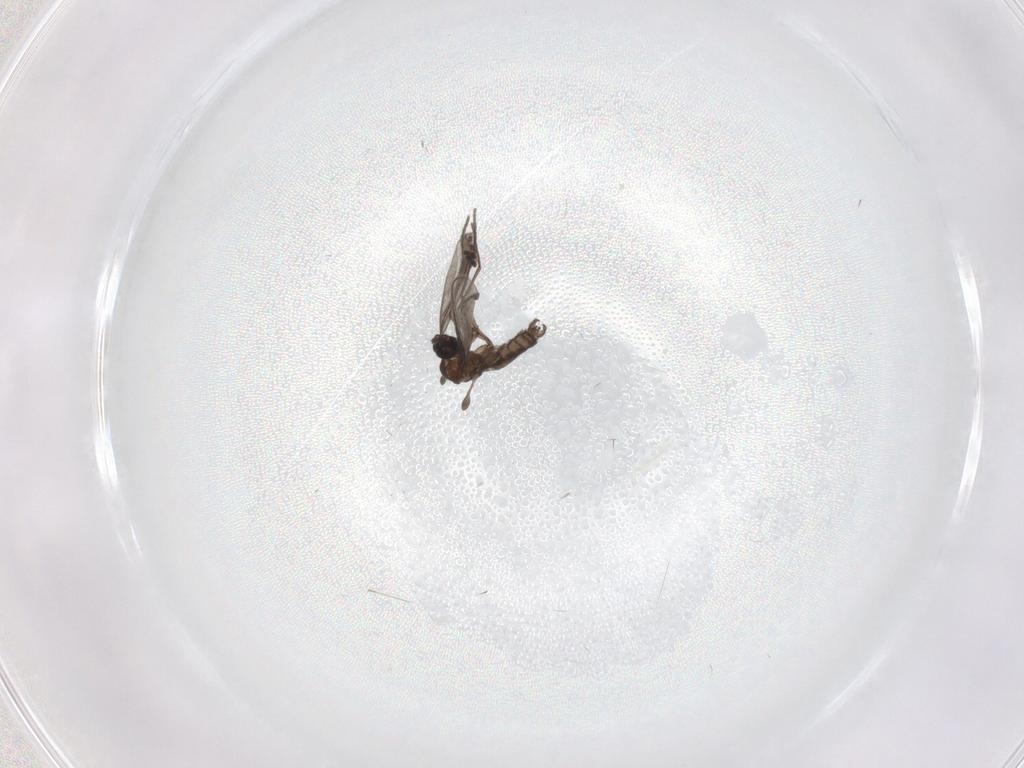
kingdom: Animalia
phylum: Arthropoda
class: Insecta
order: Diptera
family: Sciaridae
